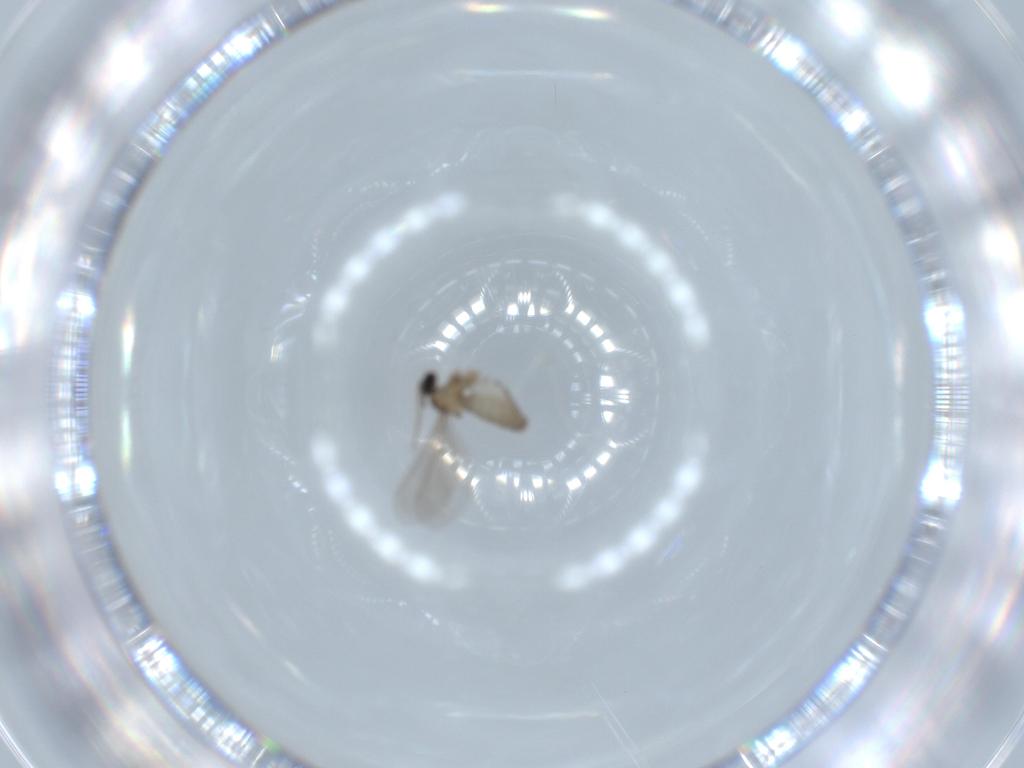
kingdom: Animalia
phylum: Arthropoda
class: Insecta
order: Diptera
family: Cecidomyiidae
